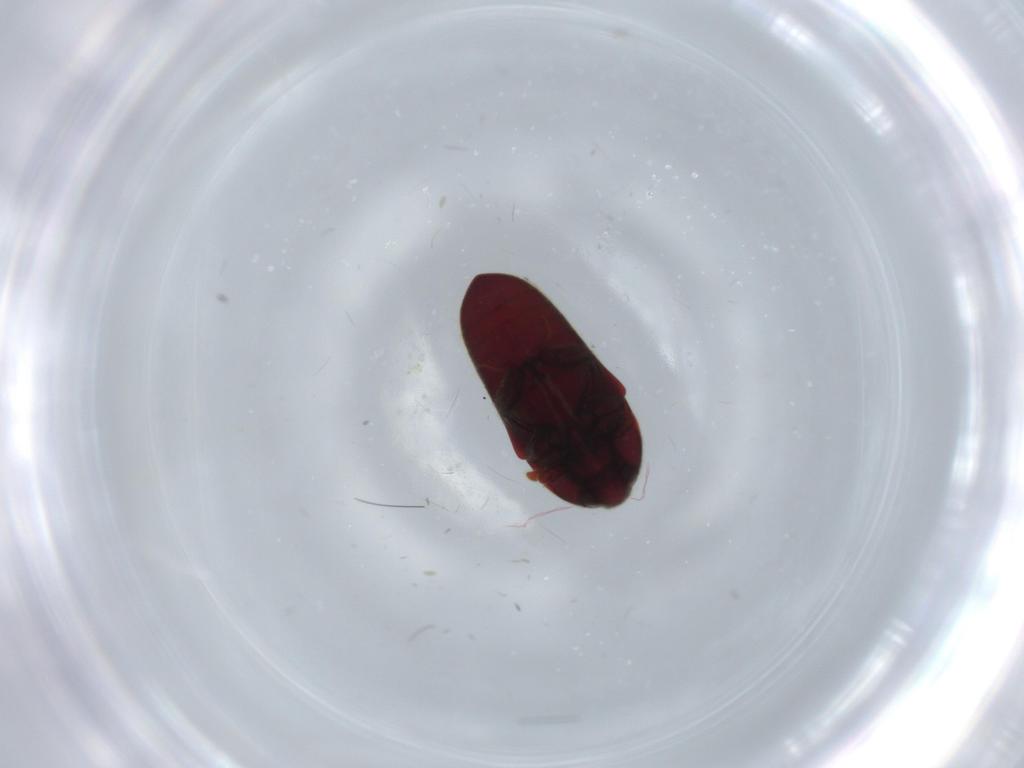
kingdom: Animalia
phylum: Arthropoda
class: Insecta
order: Coleoptera
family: Throscidae
